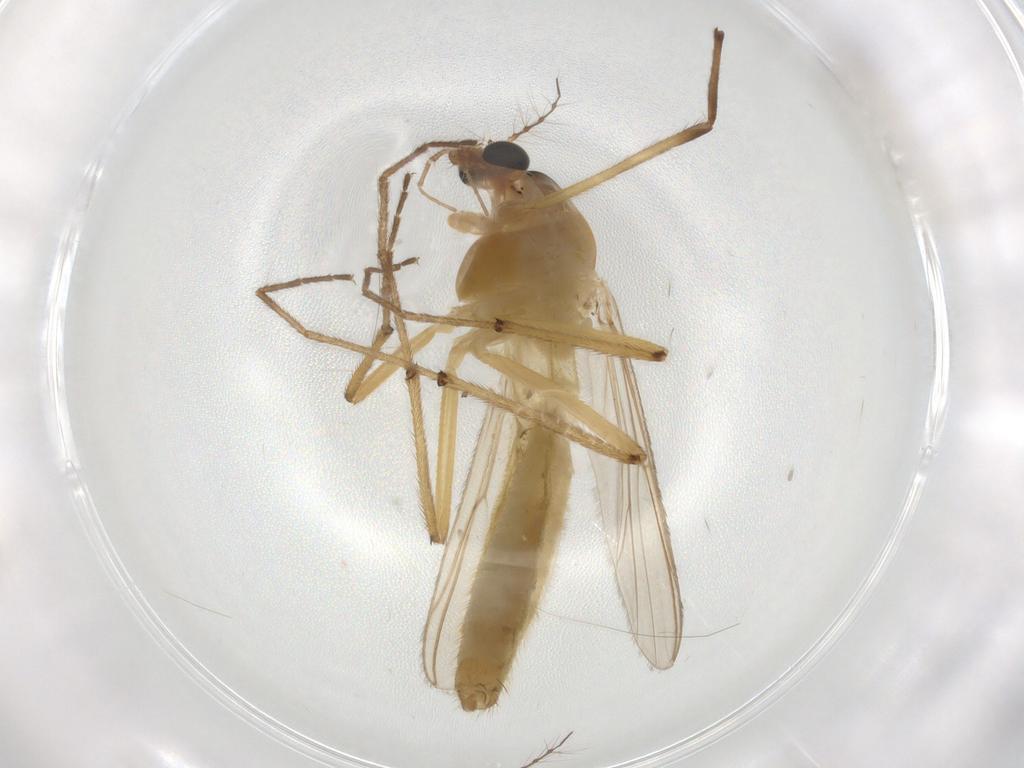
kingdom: Animalia
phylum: Arthropoda
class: Insecta
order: Diptera
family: Chironomidae
